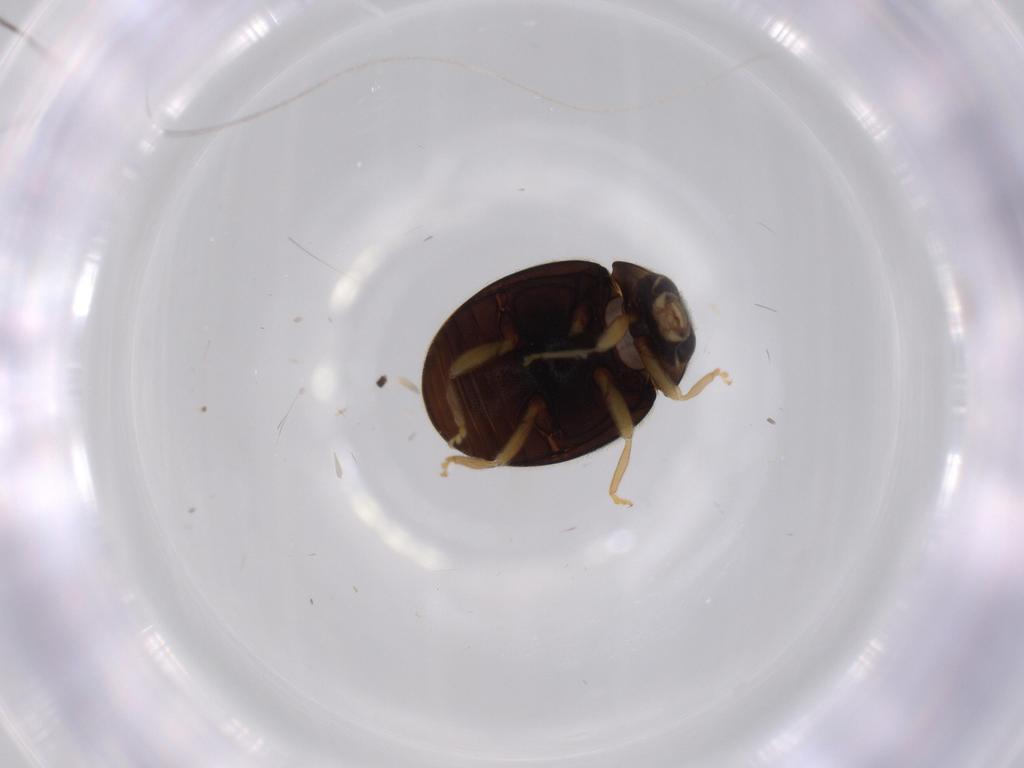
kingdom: Animalia
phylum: Arthropoda
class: Insecta
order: Coleoptera
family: Coccinellidae
